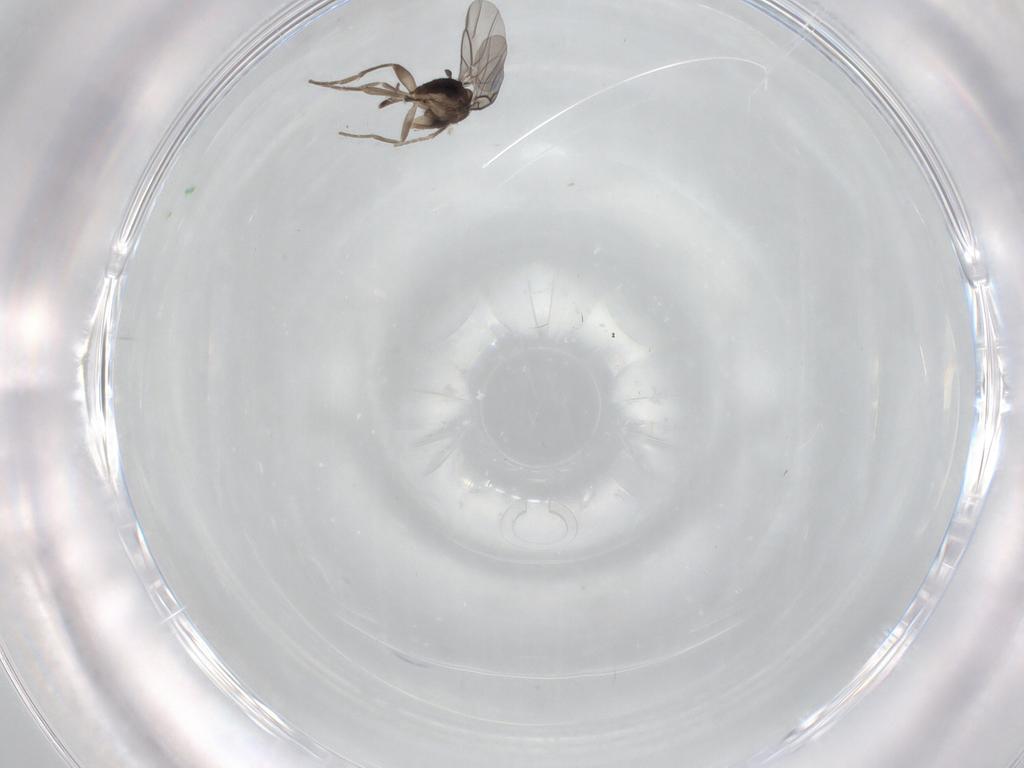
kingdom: Animalia
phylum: Arthropoda
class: Insecta
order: Diptera
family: Phoridae
